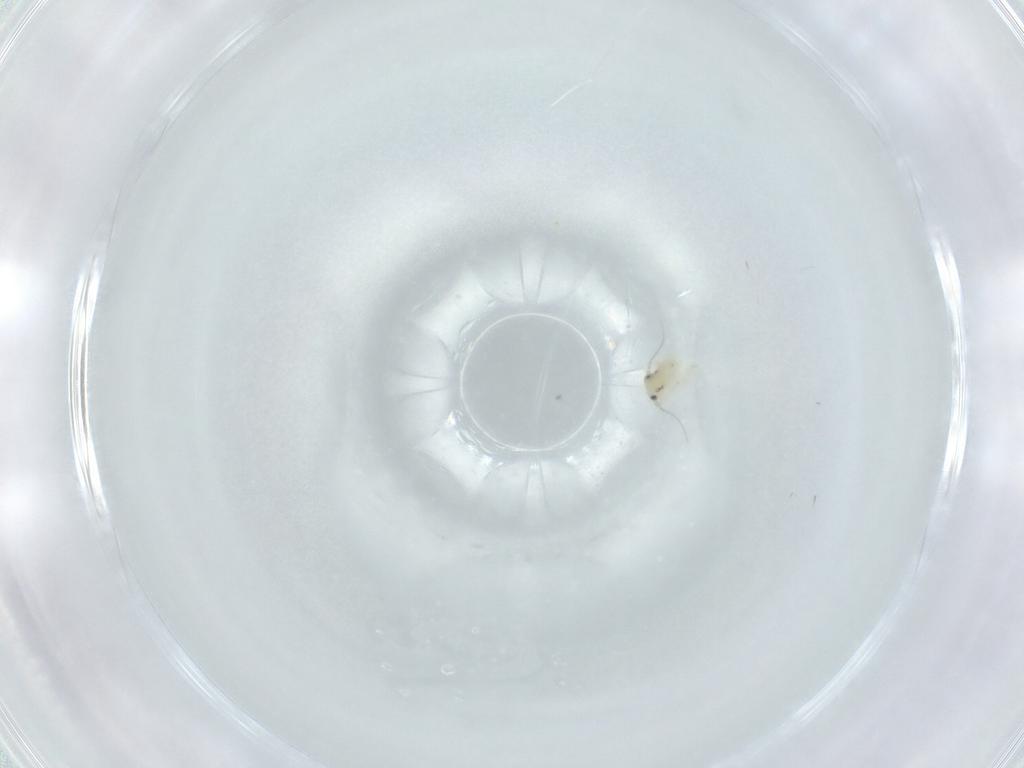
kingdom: Animalia
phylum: Arthropoda
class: Insecta
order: Psocodea
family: Lepidopsocidae
